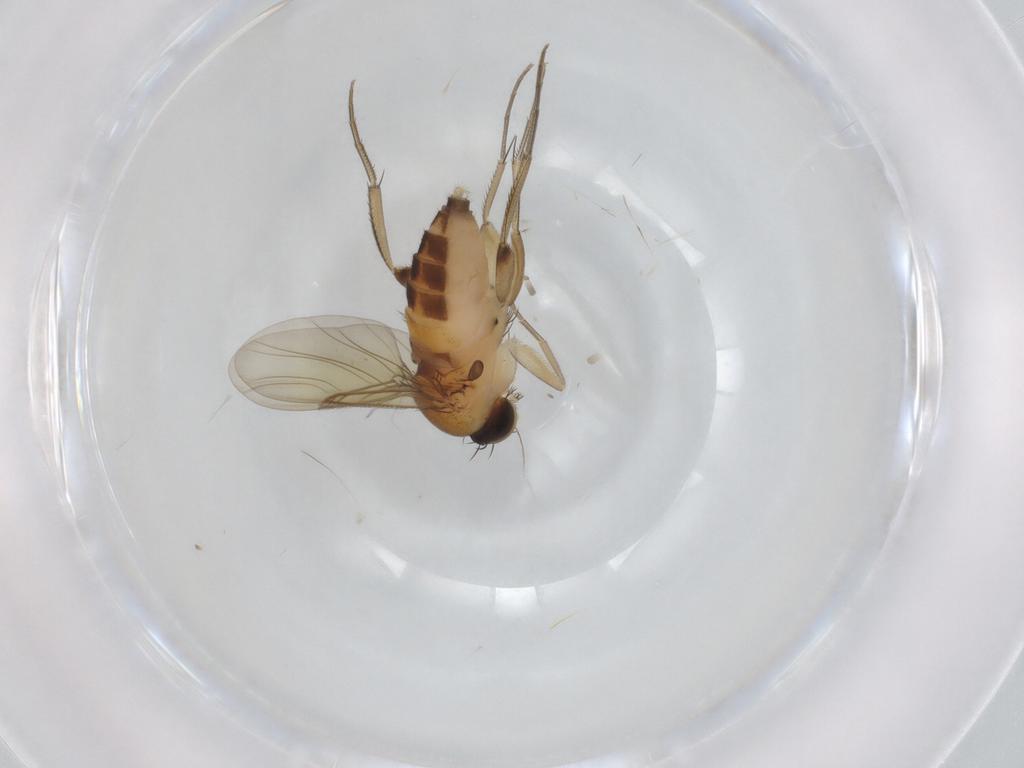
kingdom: Animalia
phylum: Arthropoda
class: Insecta
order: Diptera
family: Phoridae
